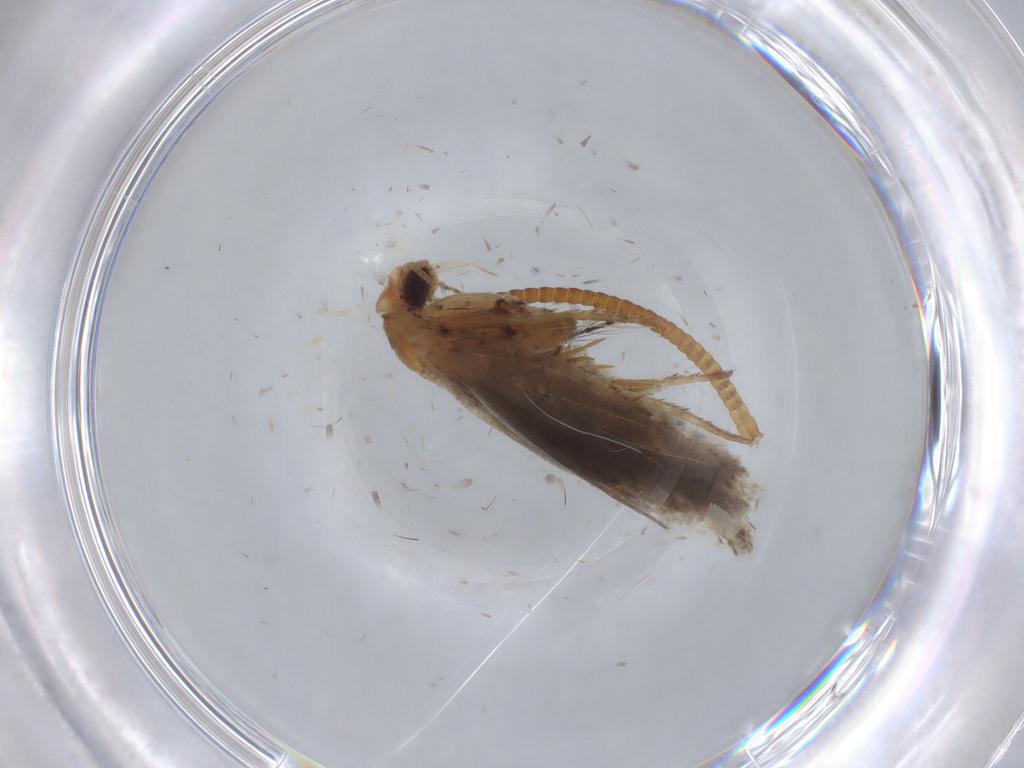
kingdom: Animalia
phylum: Arthropoda
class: Insecta
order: Lepidoptera
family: Ypsolophidae
